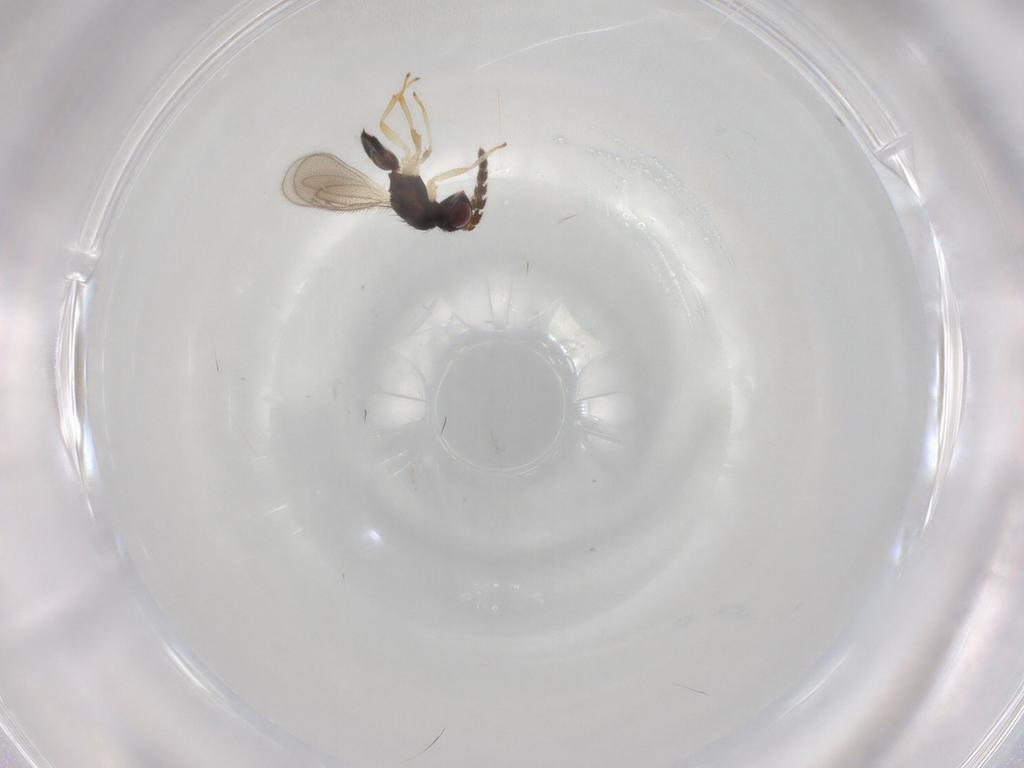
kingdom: Animalia
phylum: Arthropoda
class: Insecta
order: Hymenoptera
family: Eulophidae
